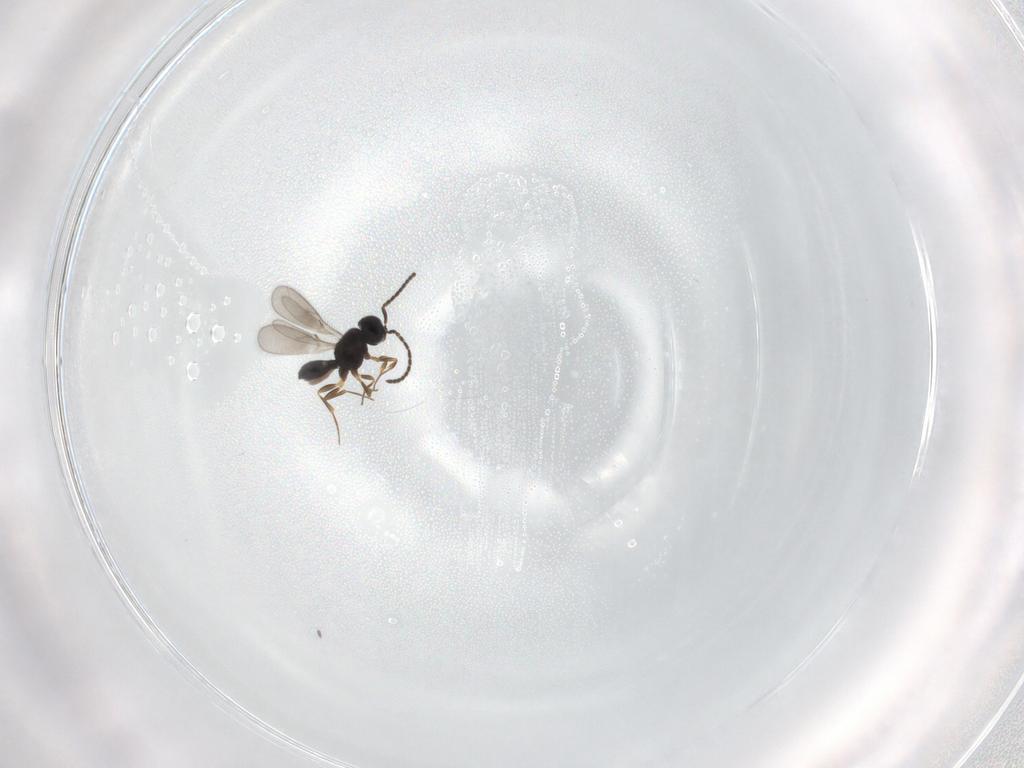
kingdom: Animalia
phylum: Arthropoda
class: Insecta
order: Hymenoptera
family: Scelionidae
